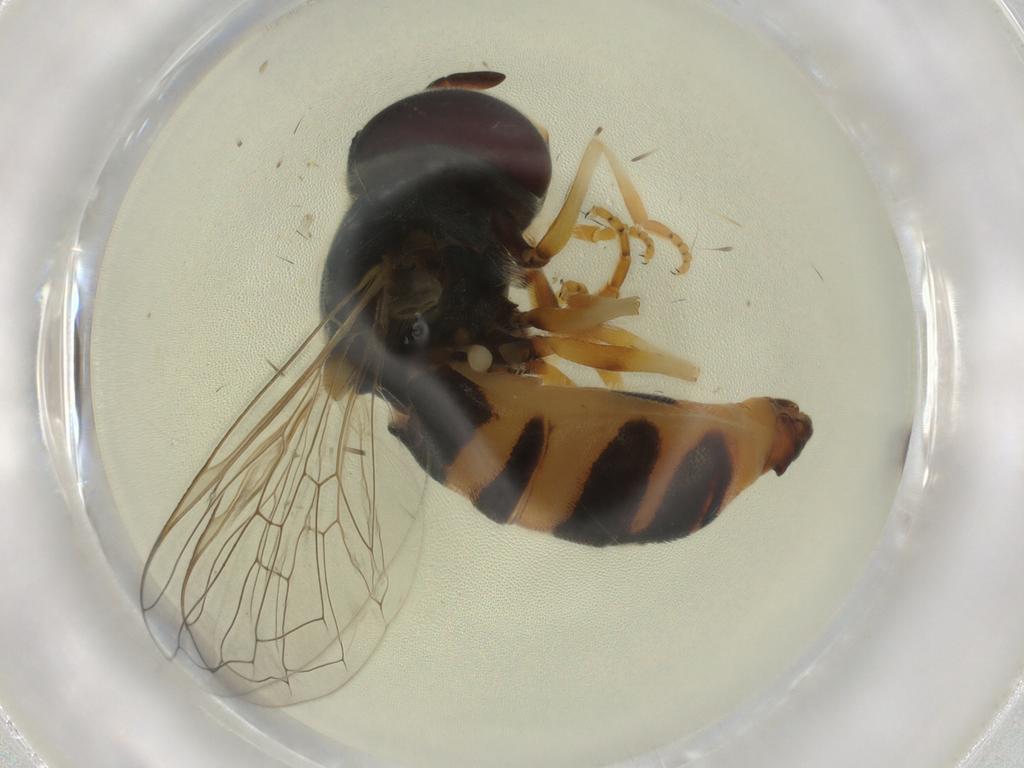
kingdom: Animalia
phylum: Arthropoda
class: Insecta
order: Diptera
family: Syrphidae
